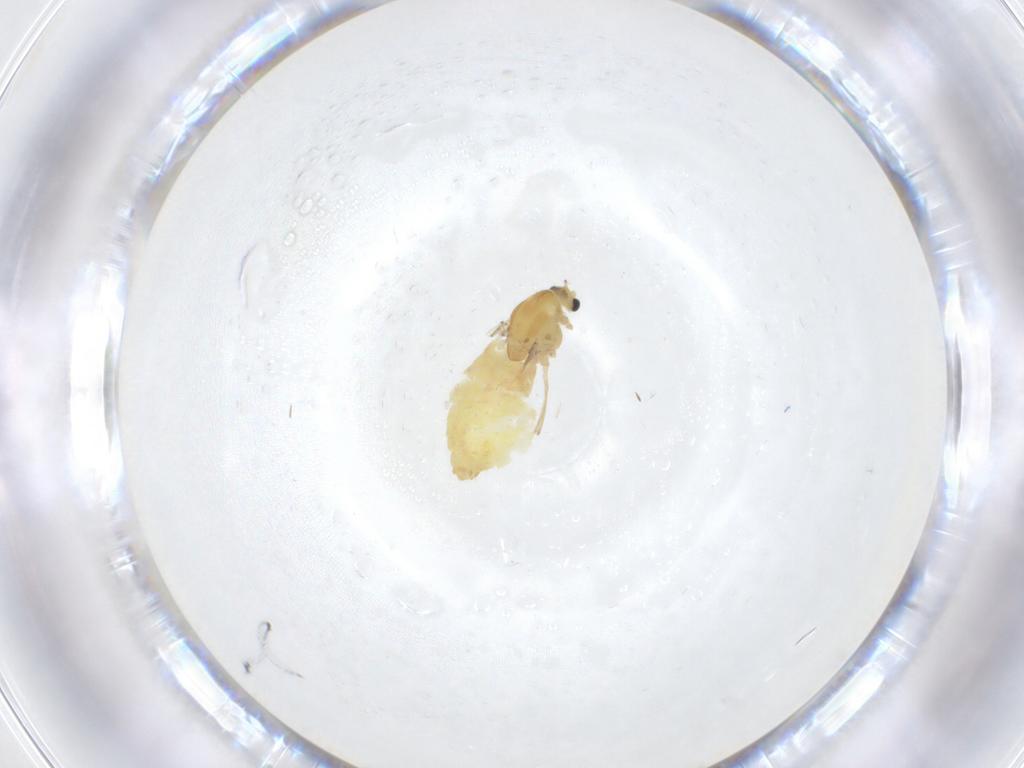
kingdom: Animalia
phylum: Arthropoda
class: Insecta
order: Diptera
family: Chironomidae
